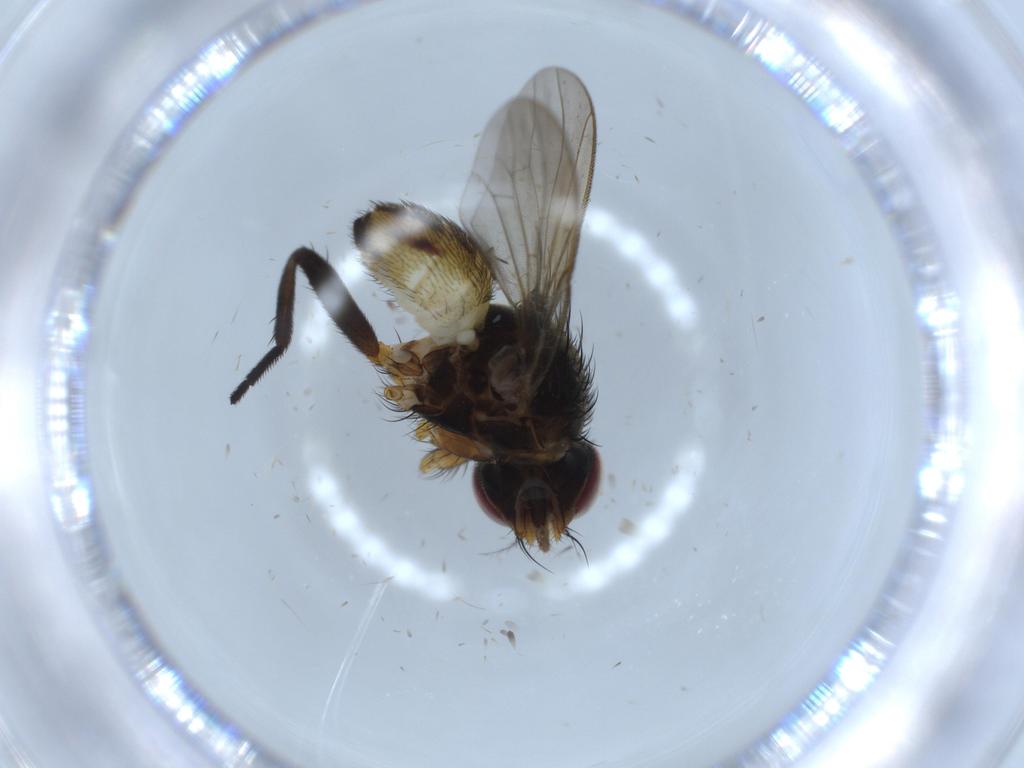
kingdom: Animalia
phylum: Arthropoda
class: Insecta
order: Diptera
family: Anthomyiidae
